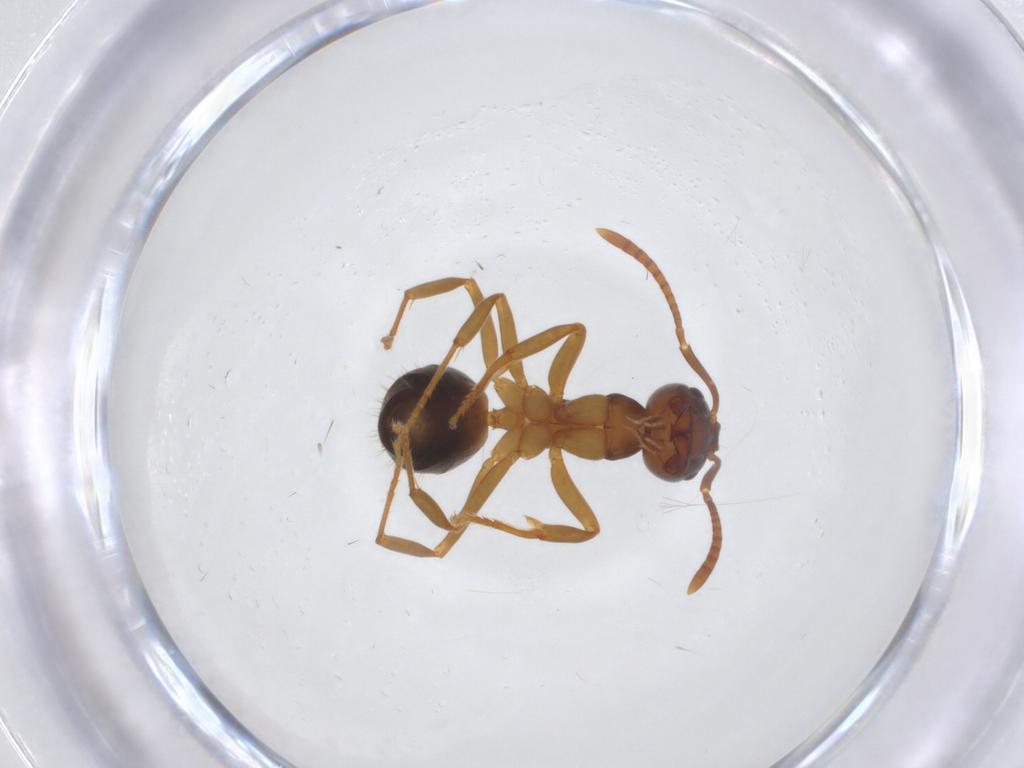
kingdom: Animalia
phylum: Arthropoda
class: Insecta
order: Hymenoptera
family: Formicidae
